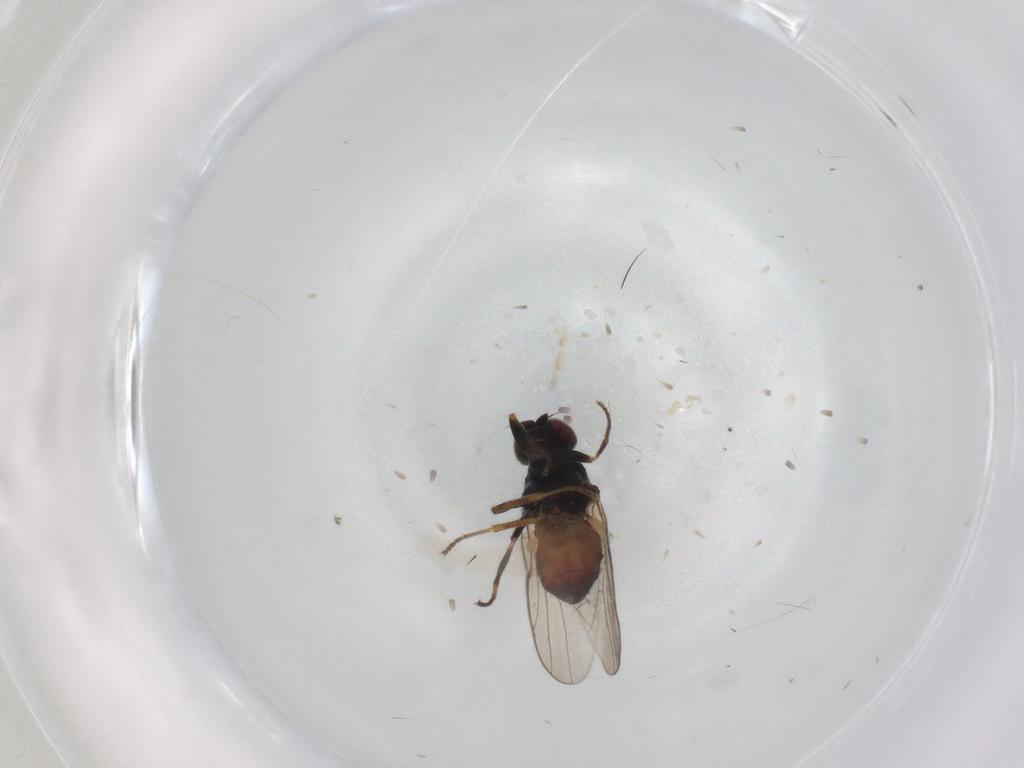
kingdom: Animalia
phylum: Arthropoda
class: Insecta
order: Diptera
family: Chloropidae
